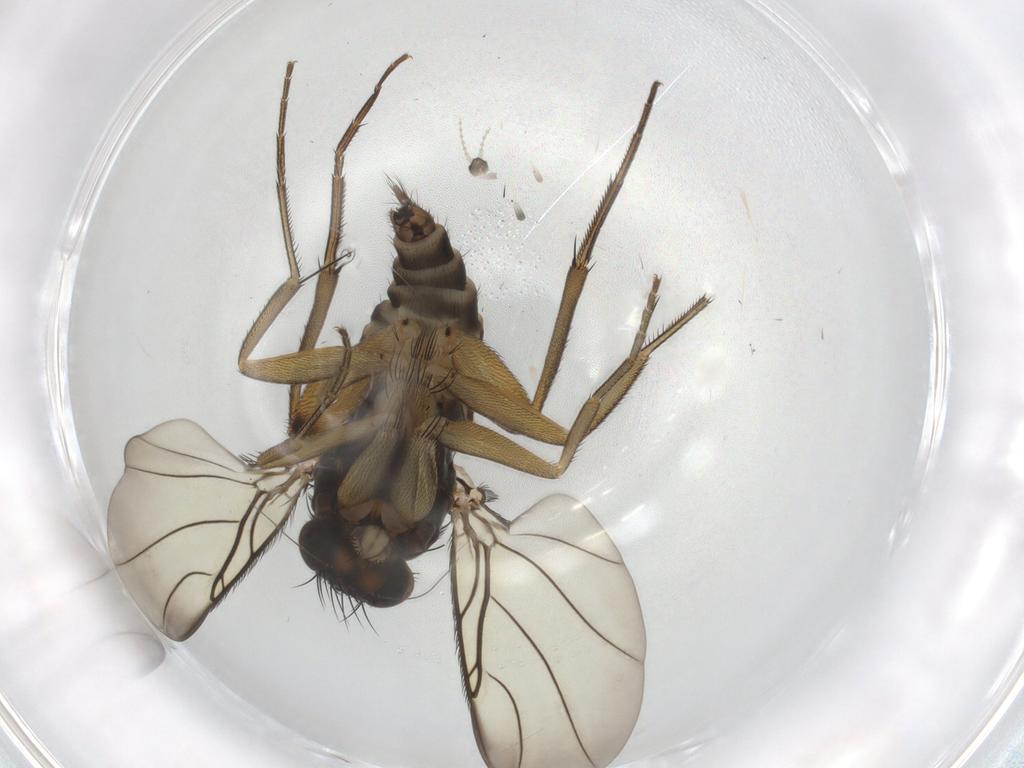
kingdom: Animalia
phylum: Arthropoda
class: Insecta
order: Diptera
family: Phoridae
